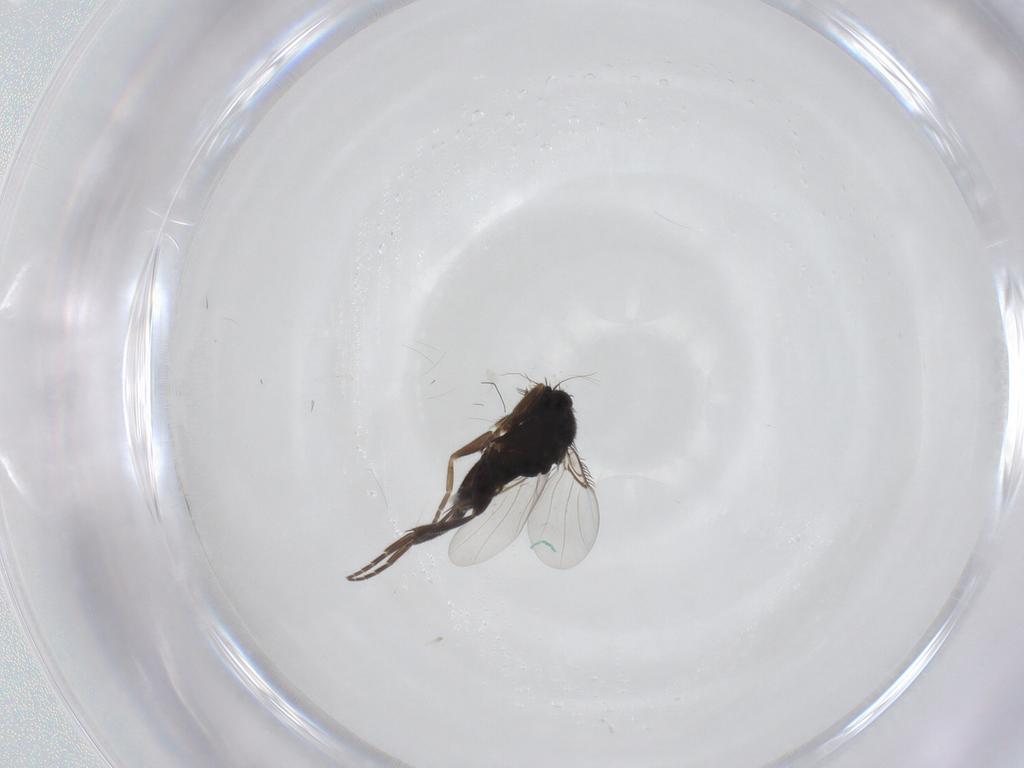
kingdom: Animalia
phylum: Arthropoda
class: Insecta
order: Diptera
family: Phoridae
